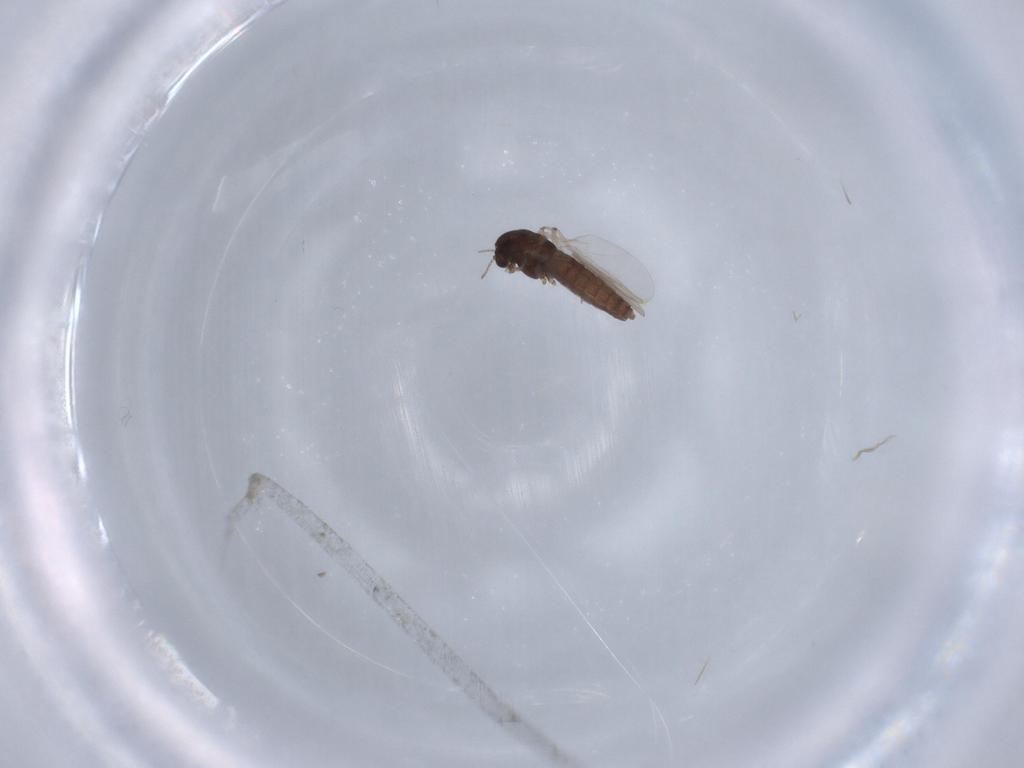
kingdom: Animalia
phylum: Arthropoda
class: Insecta
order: Diptera
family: Chironomidae
